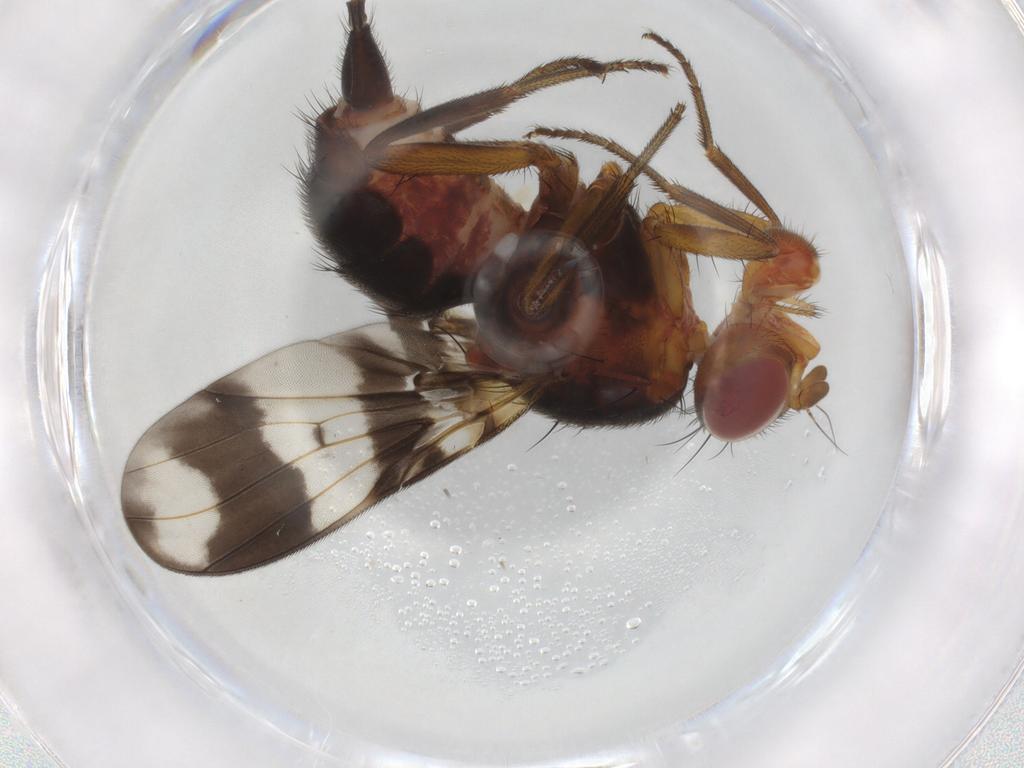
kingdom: Animalia
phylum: Arthropoda
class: Insecta
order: Diptera
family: Richardiidae
